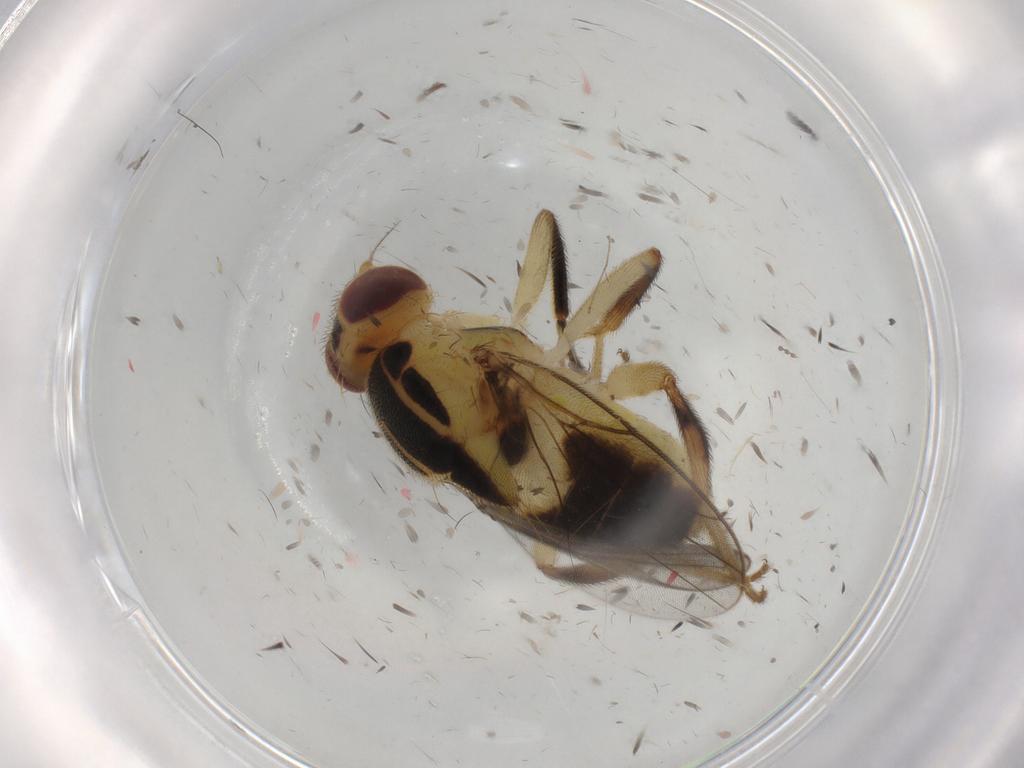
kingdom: Animalia
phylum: Arthropoda
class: Insecta
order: Diptera
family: Chloropidae
